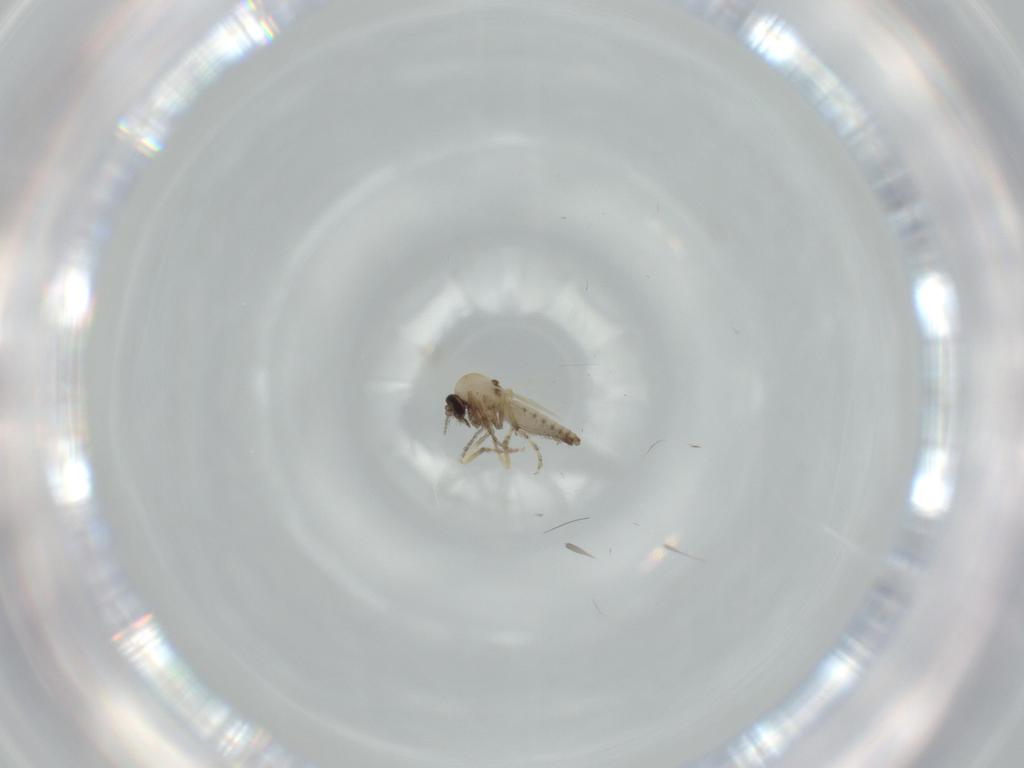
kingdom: Animalia
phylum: Arthropoda
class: Insecta
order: Diptera
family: Ceratopogonidae
